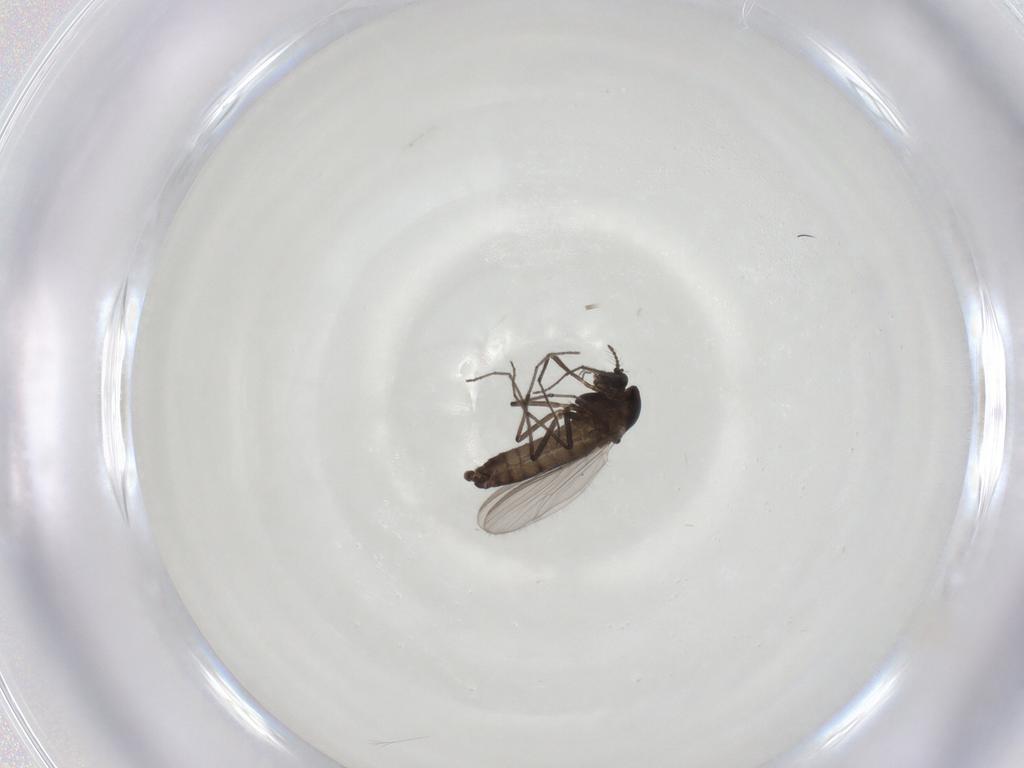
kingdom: Animalia
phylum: Arthropoda
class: Insecta
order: Diptera
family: Chironomidae
